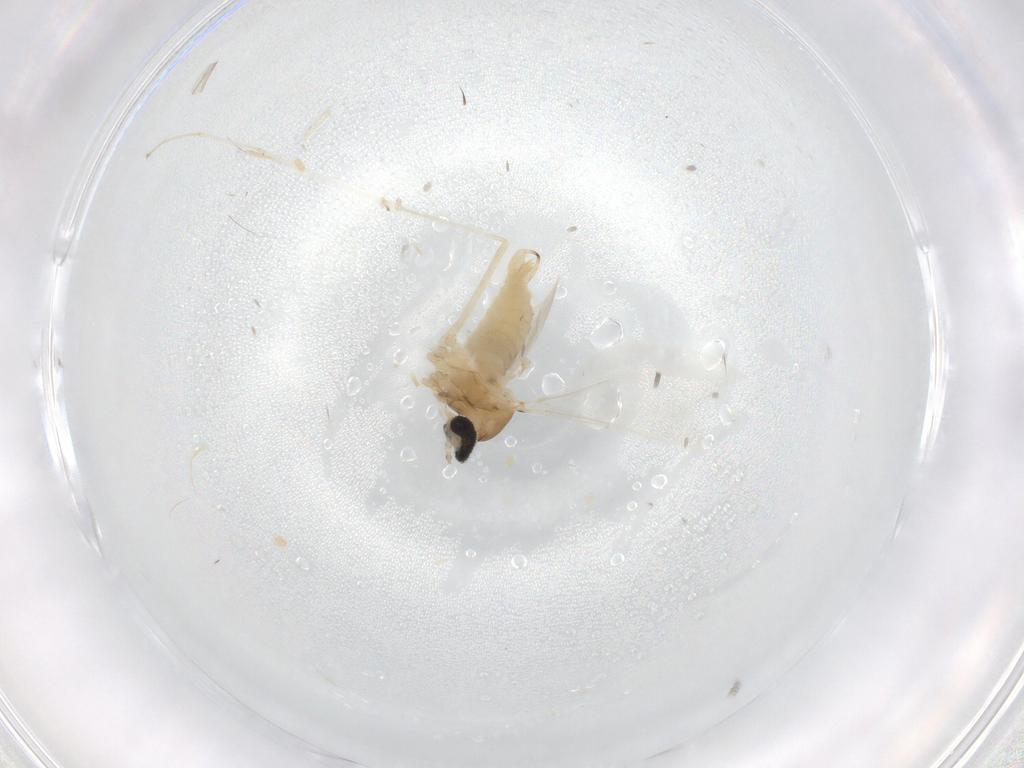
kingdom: Animalia
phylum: Arthropoda
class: Insecta
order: Diptera
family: Cecidomyiidae
